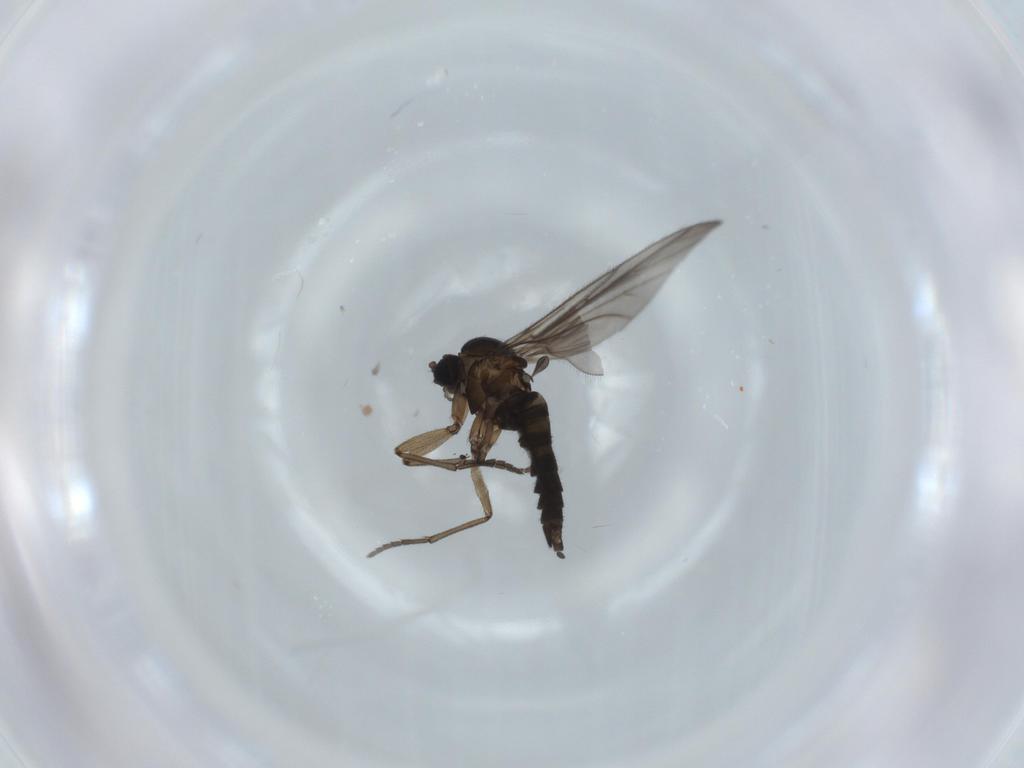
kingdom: Animalia
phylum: Arthropoda
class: Insecta
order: Diptera
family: Sciaridae
